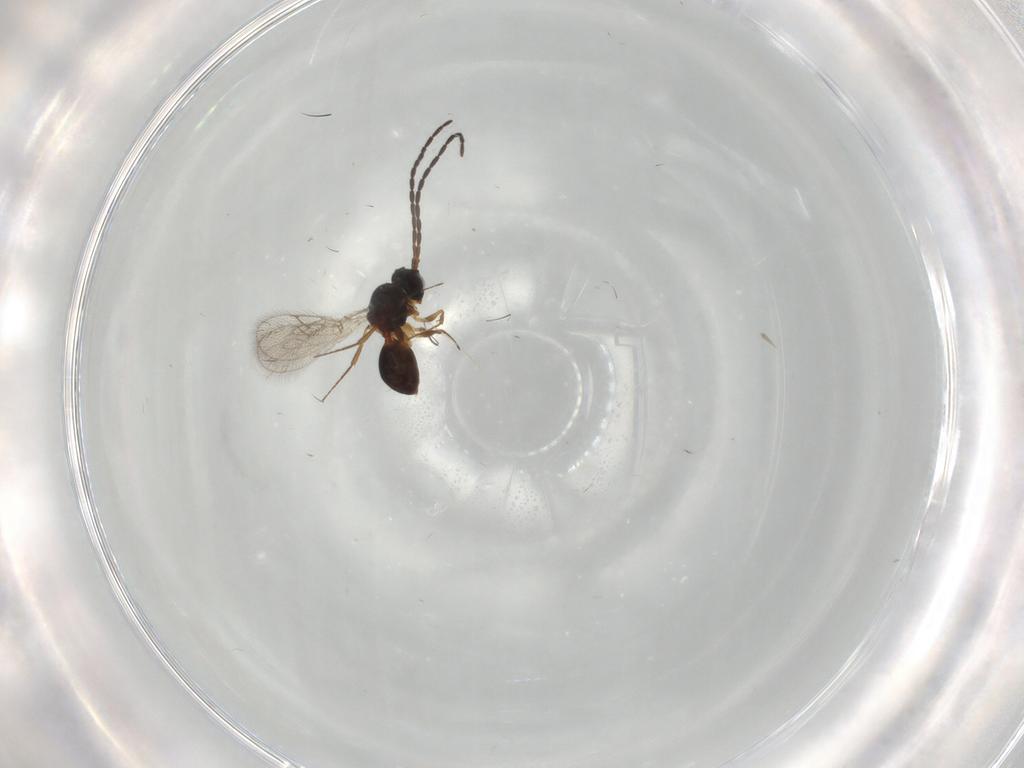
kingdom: Animalia
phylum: Arthropoda
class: Insecta
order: Hymenoptera
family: Figitidae
